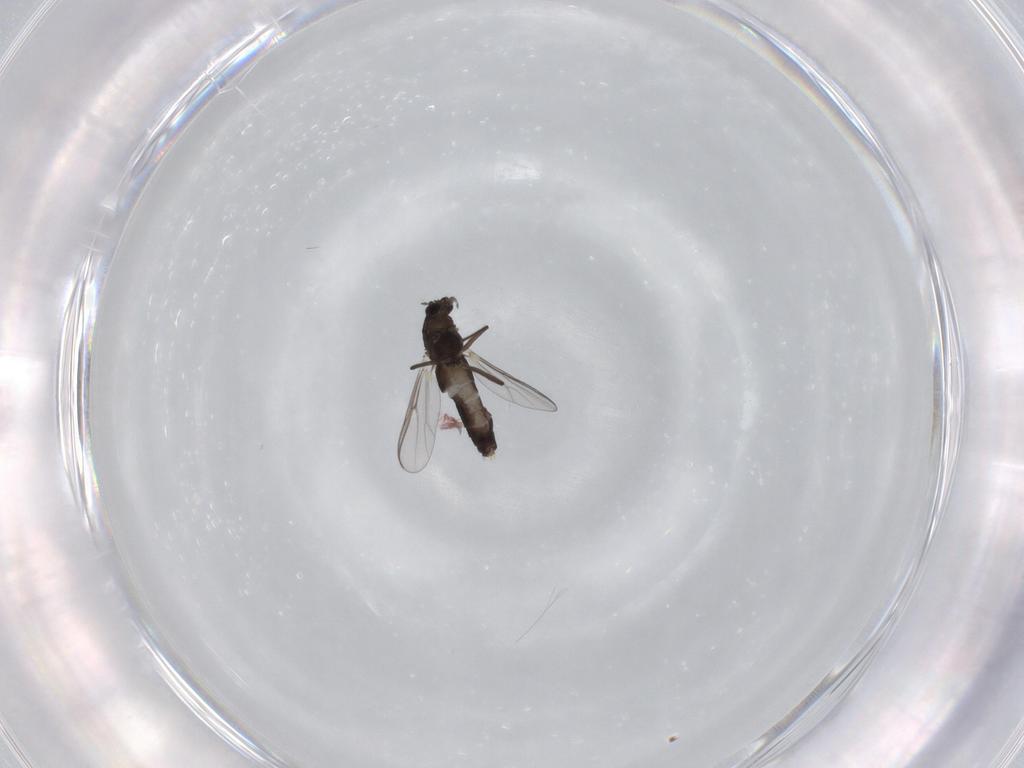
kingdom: Animalia
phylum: Arthropoda
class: Insecta
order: Diptera
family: Chironomidae
